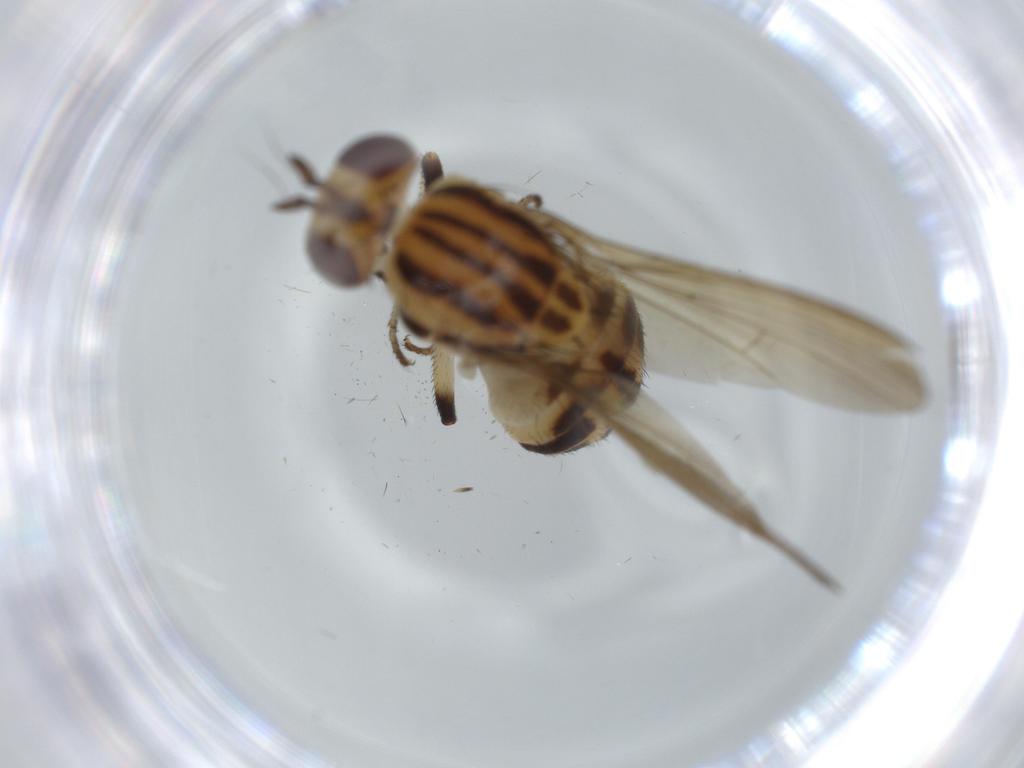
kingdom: Animalia
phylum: Arthropoda
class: Insecta
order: Diptera
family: Lauxaniidae
